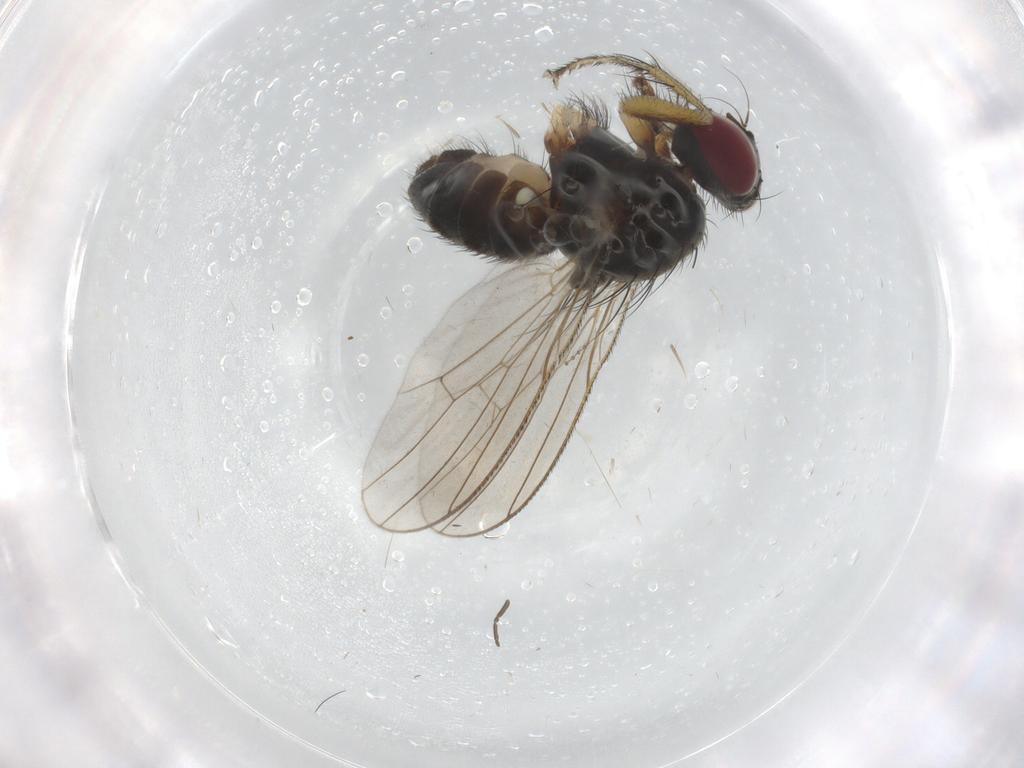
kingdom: Animalia
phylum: Arthropoda
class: Insecta
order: Diptera
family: Muscidae
